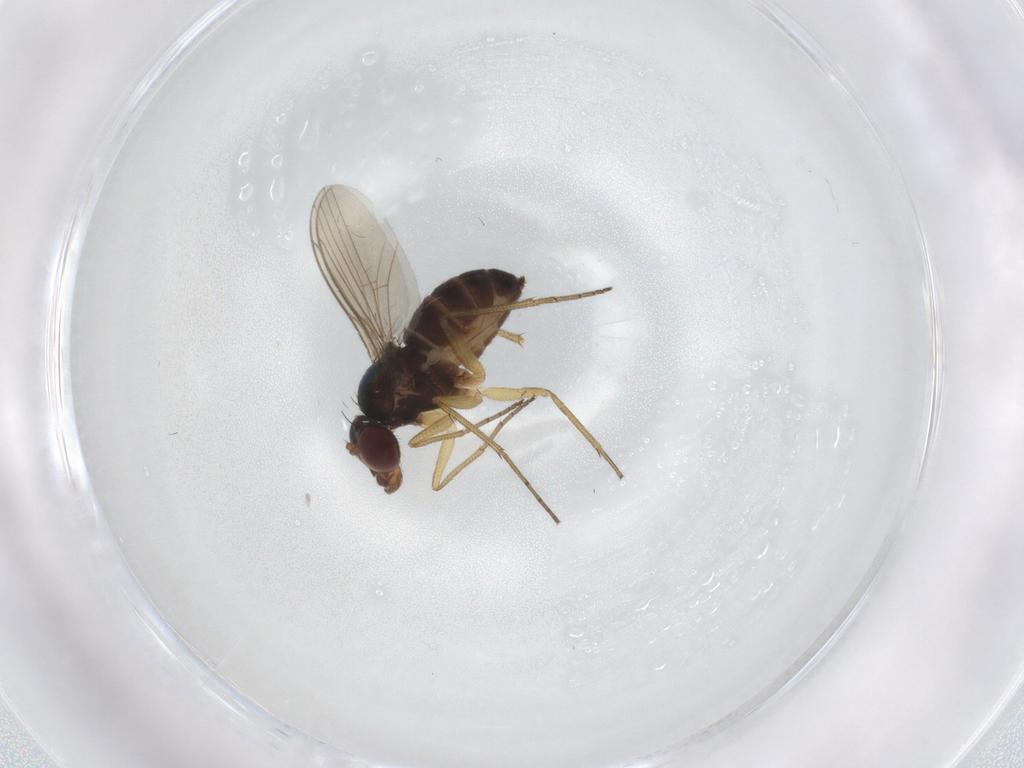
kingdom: Animalia
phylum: Arthropoda
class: Insecta
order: Diptera
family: Dolichopodidae
